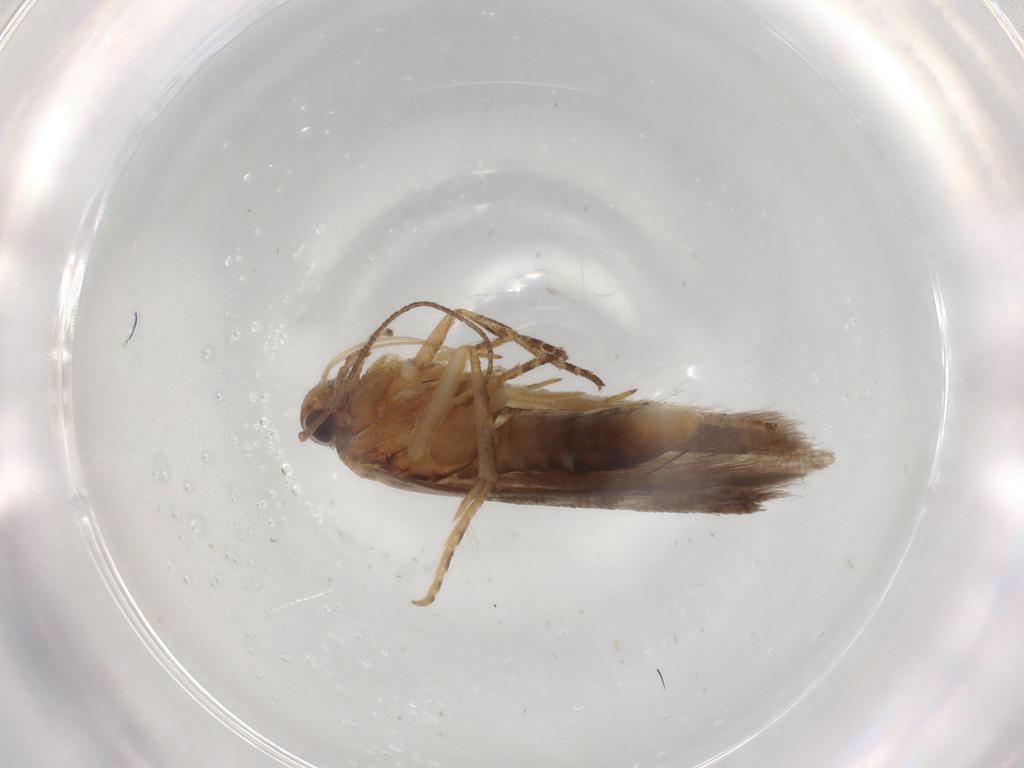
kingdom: Animalia
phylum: Arthropoda
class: Insecta
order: Lepidoptera
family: Gelechiidae
